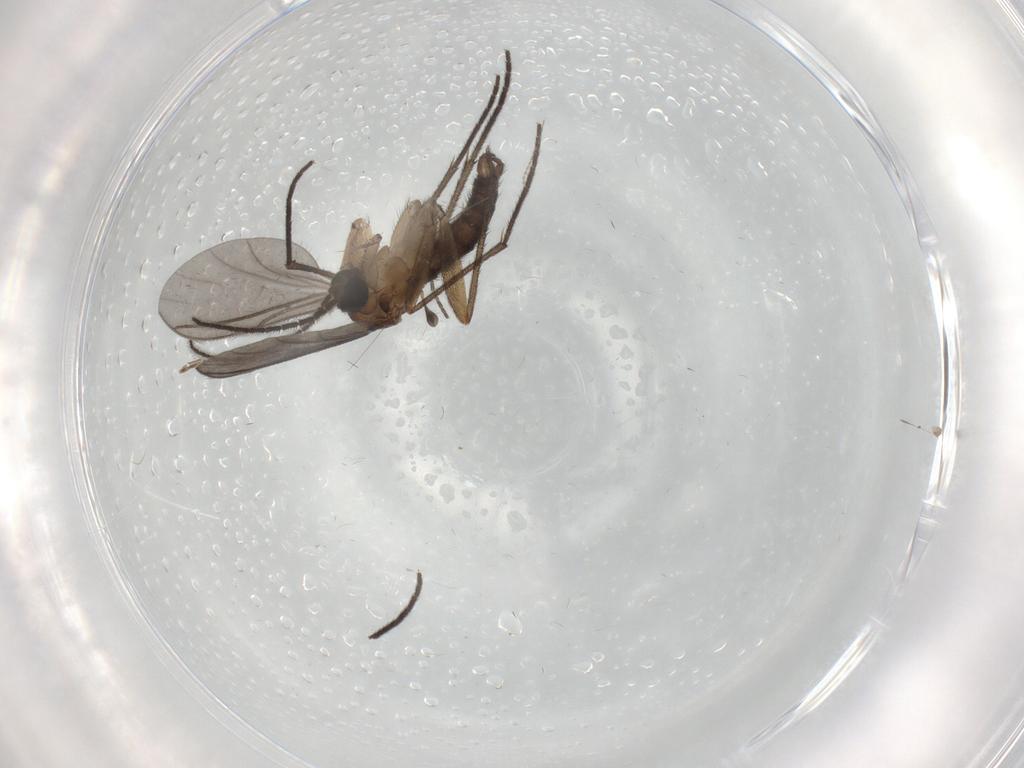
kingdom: Animalia
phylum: Arthropoda
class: Insecta
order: Diptera
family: Sciaridae
